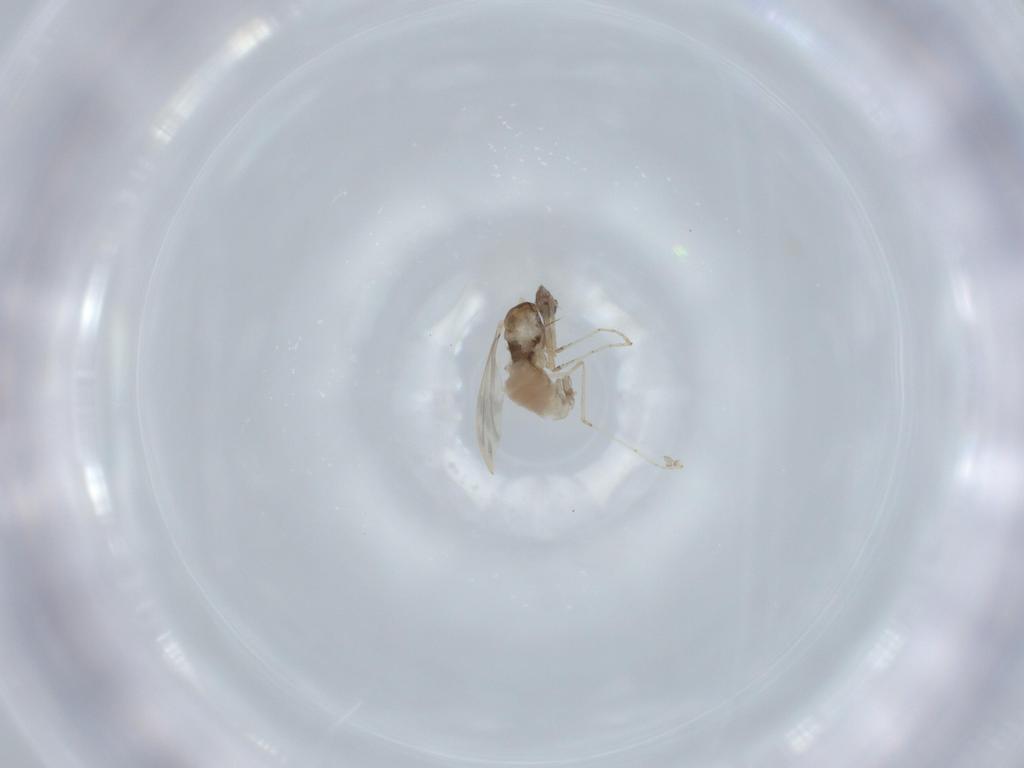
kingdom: Animalia
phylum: Arthropoda
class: Insecta
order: Diptera
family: Cecidomyiidae
